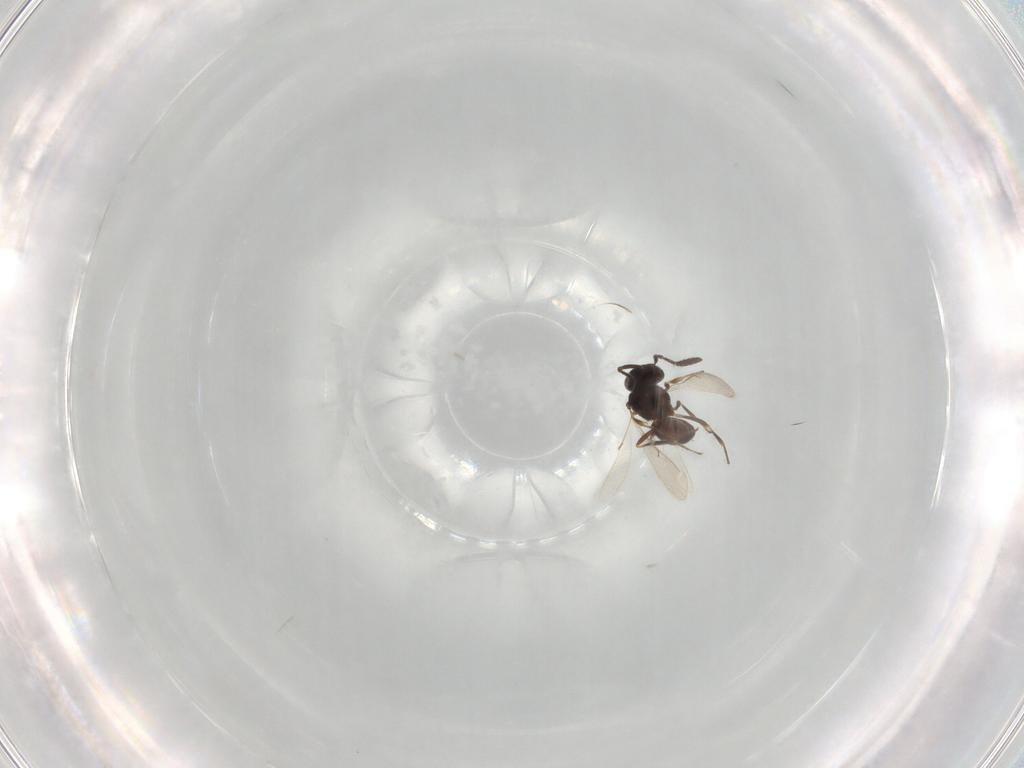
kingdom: Animalia
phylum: Arthropoda
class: Insecta
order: Hymenoptera
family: Scelionidae
